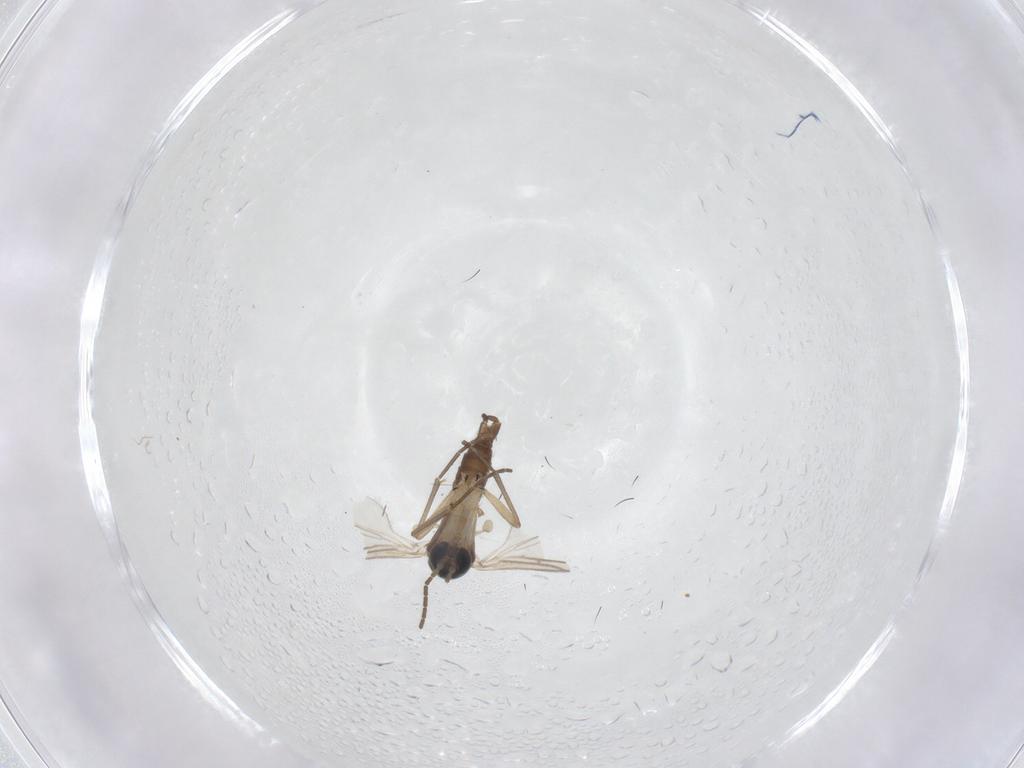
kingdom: Animalia
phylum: Arthropoda
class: Insecta
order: Diptera
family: Sciaridae
